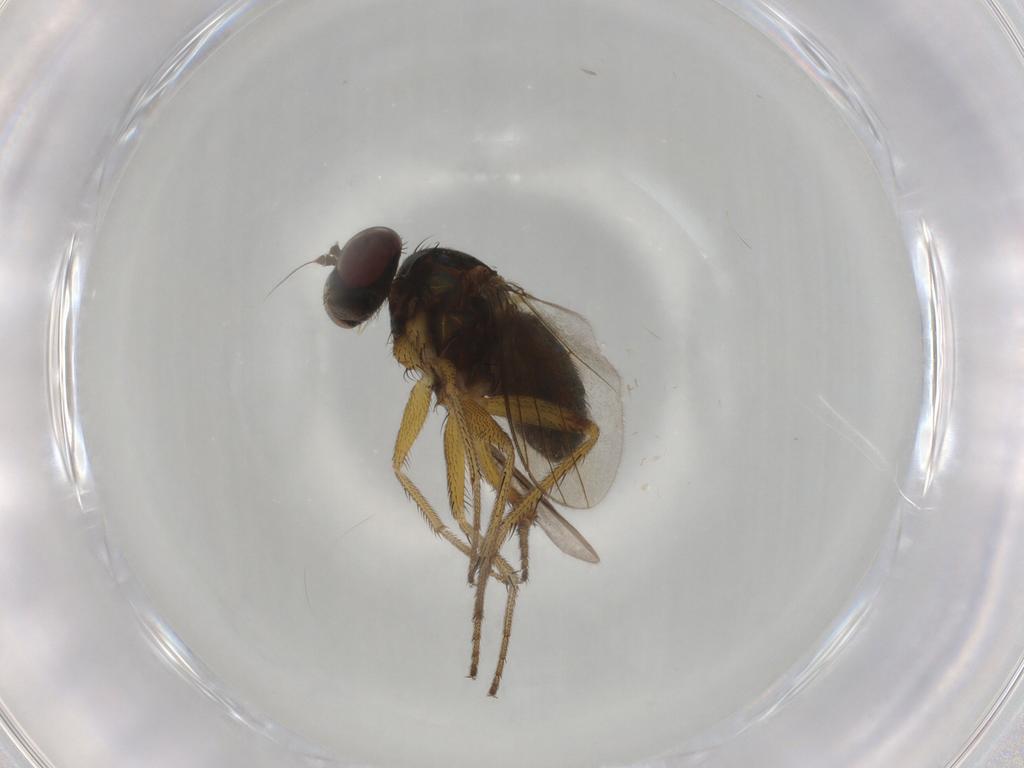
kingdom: Animalia
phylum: Arthropoda
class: Insecta
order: Diptera
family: Dolichopodidae
